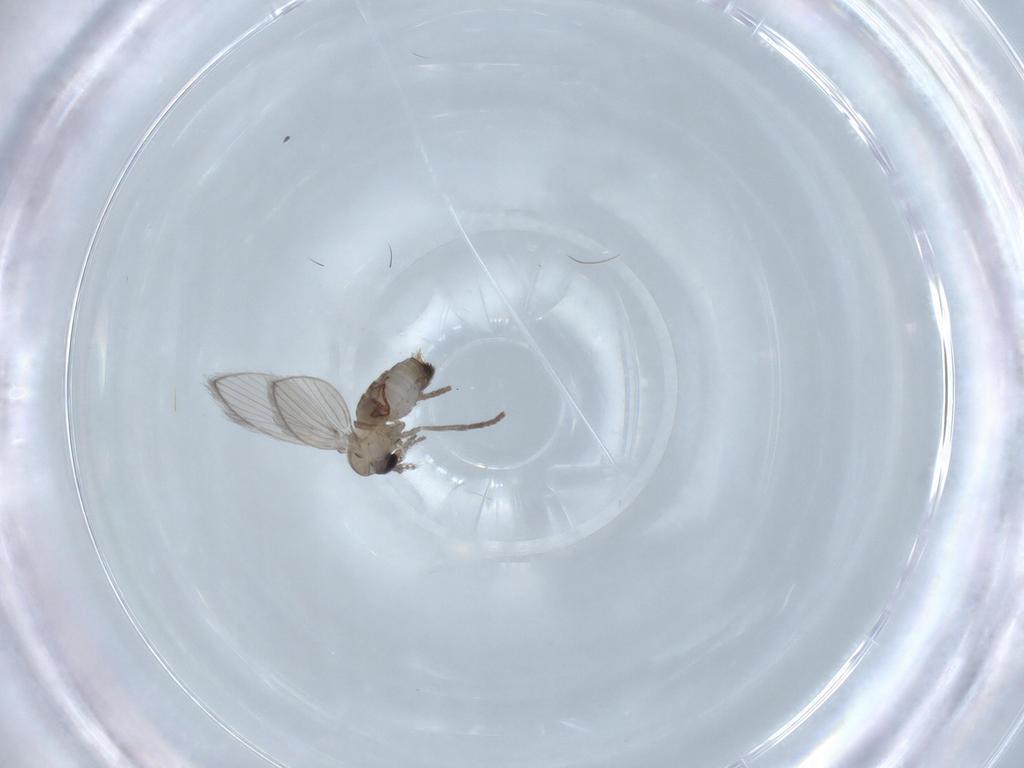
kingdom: Animalia
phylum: Arthropoda
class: Insecta
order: Diptera
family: Psychodidae
